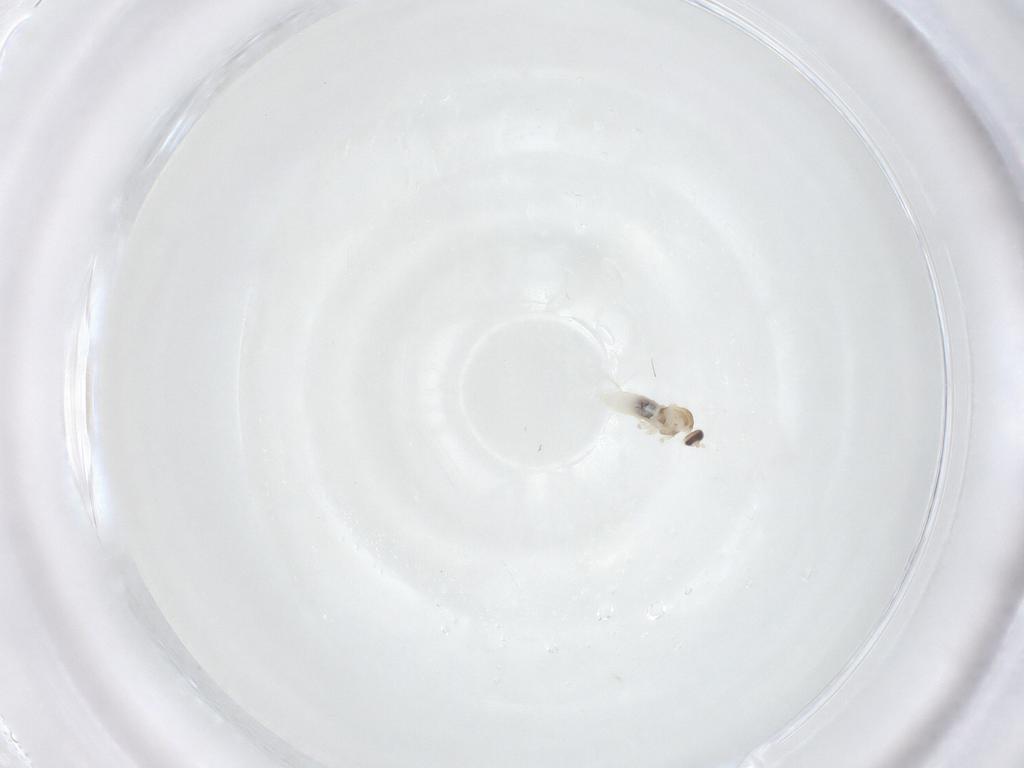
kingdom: Animalia
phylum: Arthropoda
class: Insecta
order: Diptera
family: Cecidomyiidae
